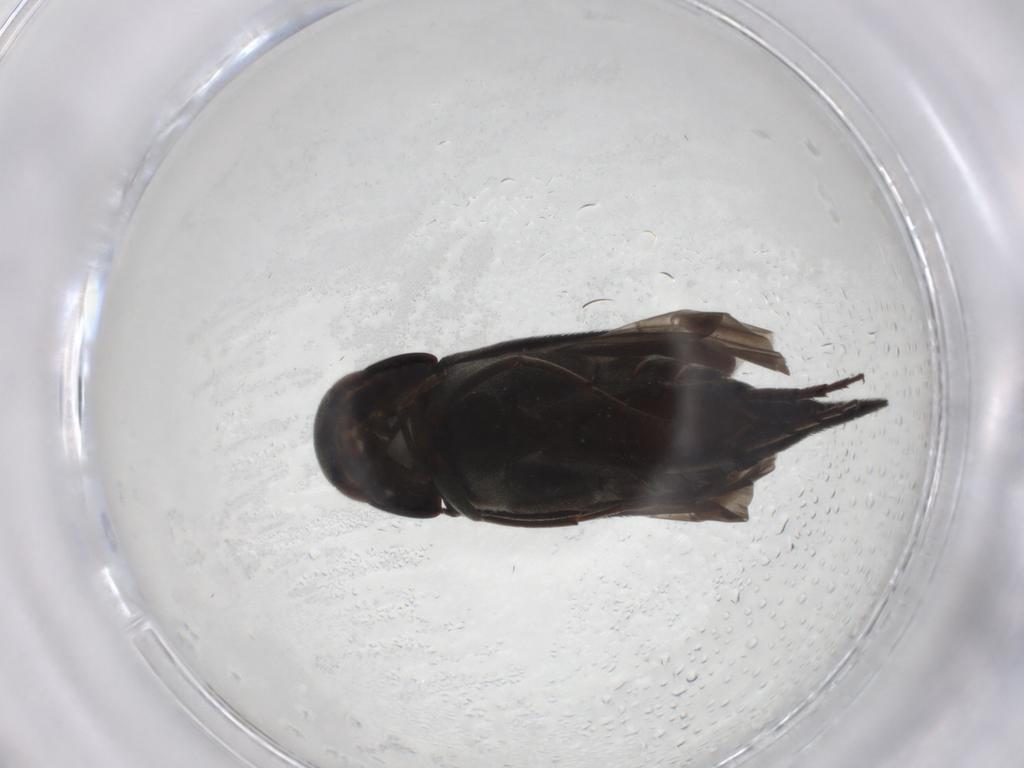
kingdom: Animalia
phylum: Arthropoda
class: Insecta
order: Coleoptera
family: Mordellidae
